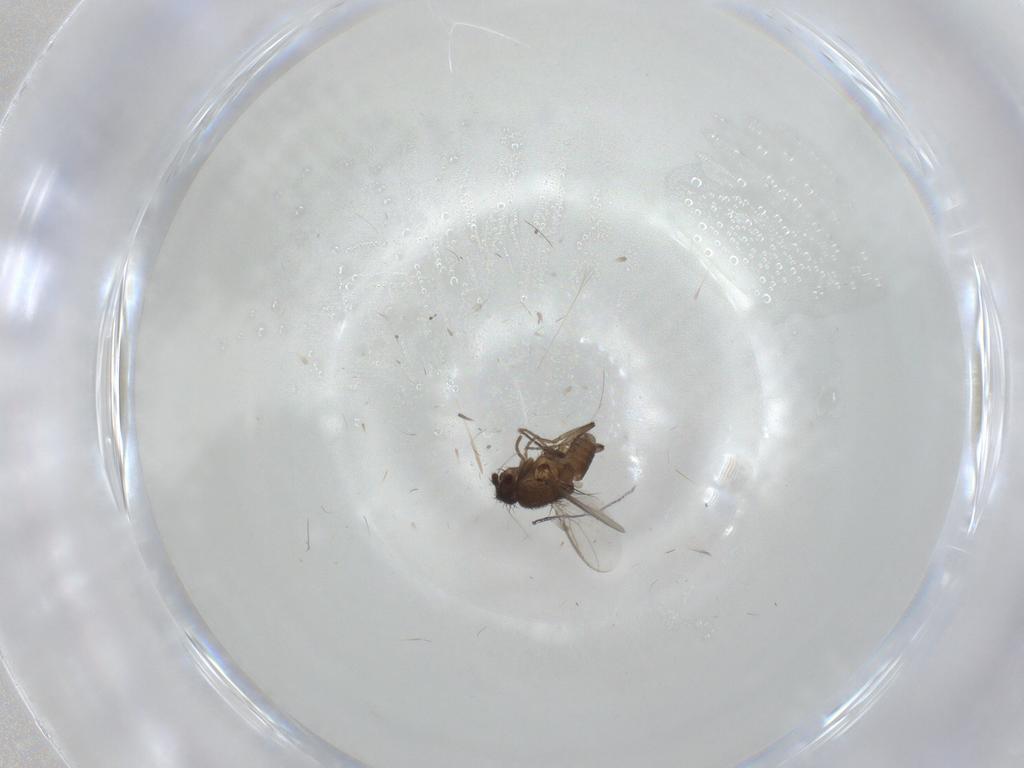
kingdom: Animalia
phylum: Arthropoda
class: Insecta
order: Diptera
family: Sphaeroceridae
